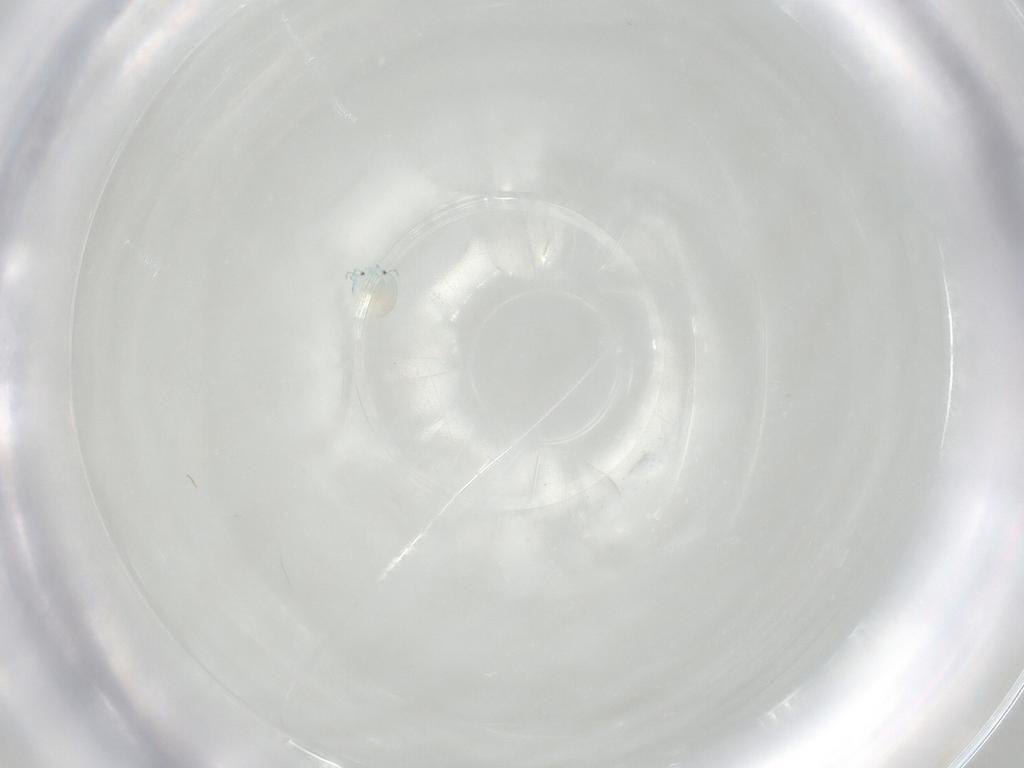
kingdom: Animalia
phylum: Arthropoda
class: Arachnida
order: Trombidiformes
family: Arrenuridae
